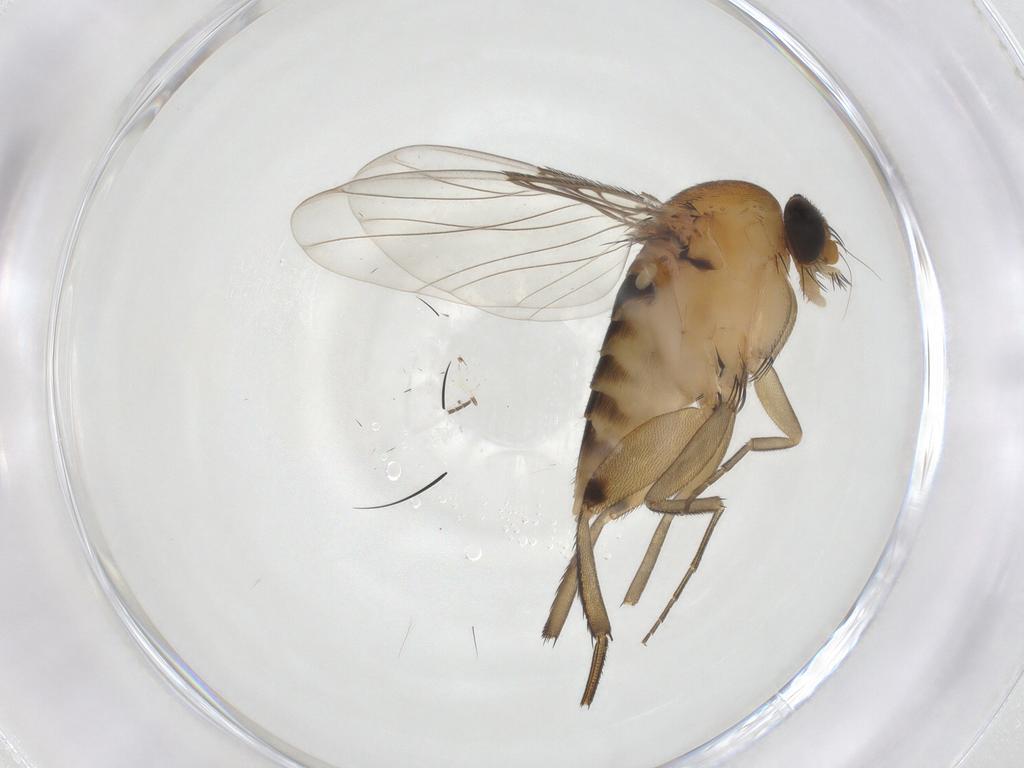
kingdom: Animalia
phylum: Arthropoda
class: Insecta
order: Diptera
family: Phoridae
